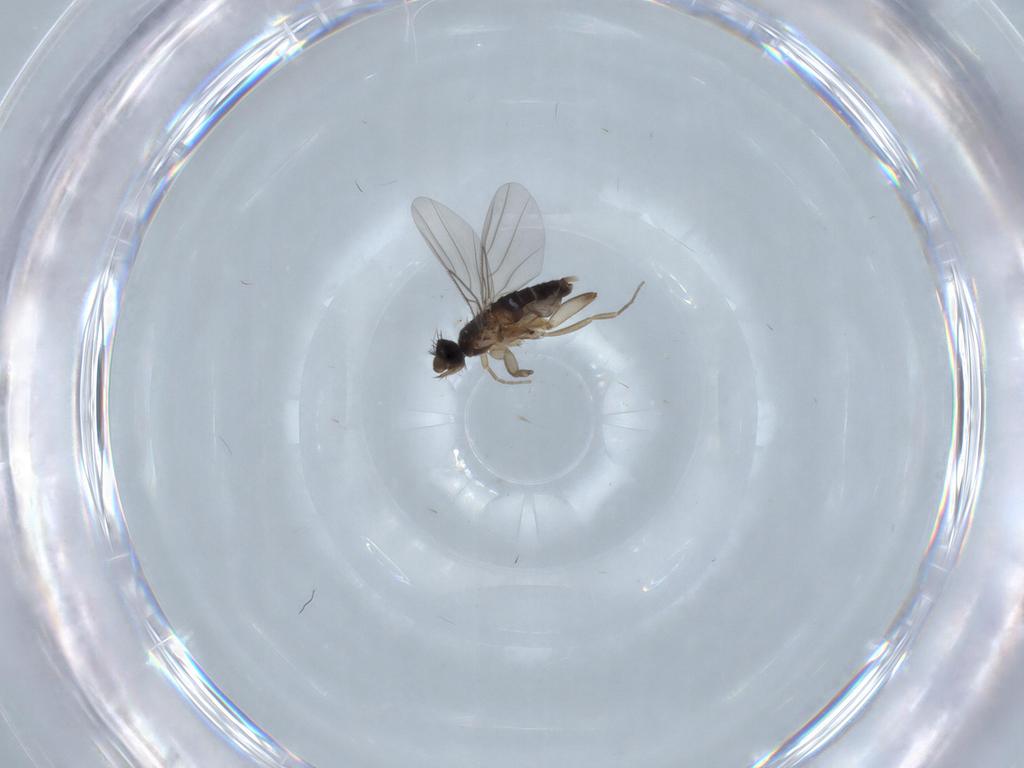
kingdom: Animalia
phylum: Arthropoda
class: Insecta
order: Diptera
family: Phoridae
